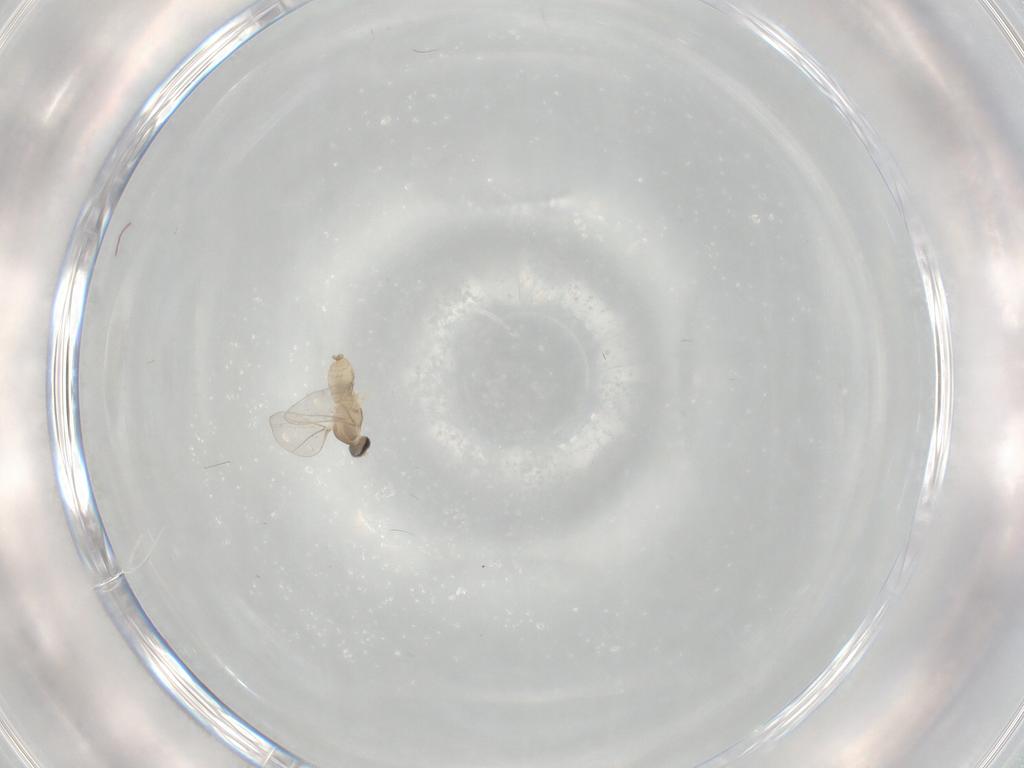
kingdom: Animalia
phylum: Arthropoda
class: Insecta
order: Diptera
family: Cecidomyiidae
